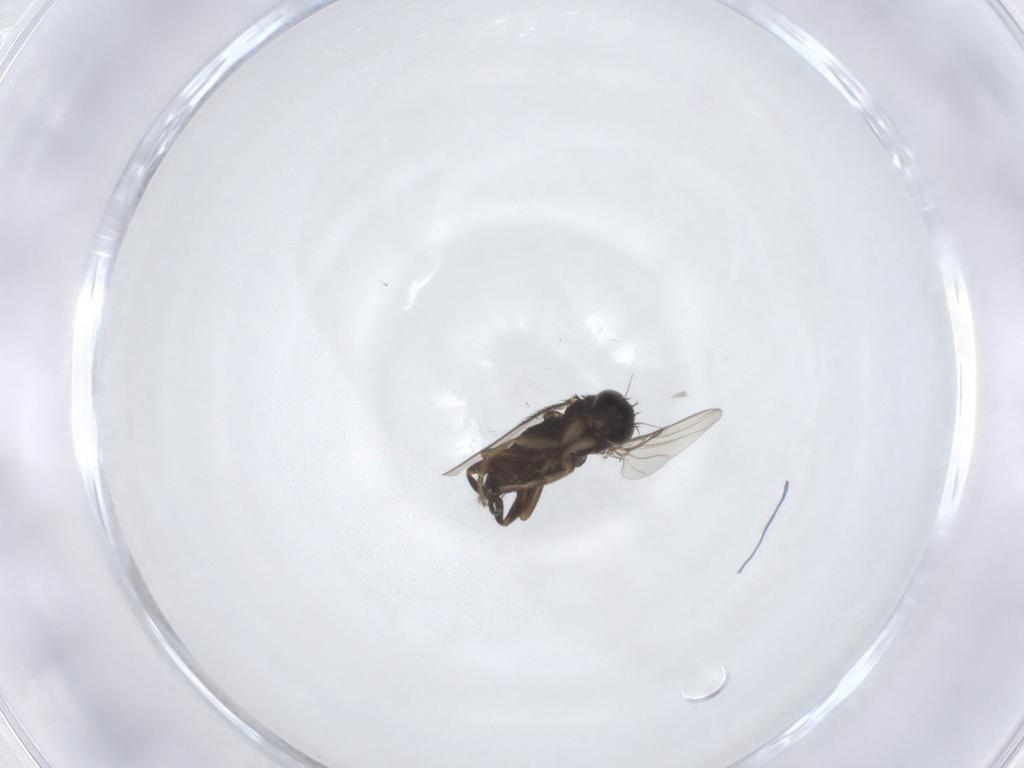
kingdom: Animalia
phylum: Arthropoda
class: Insecta
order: Diptera
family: Phoridae
